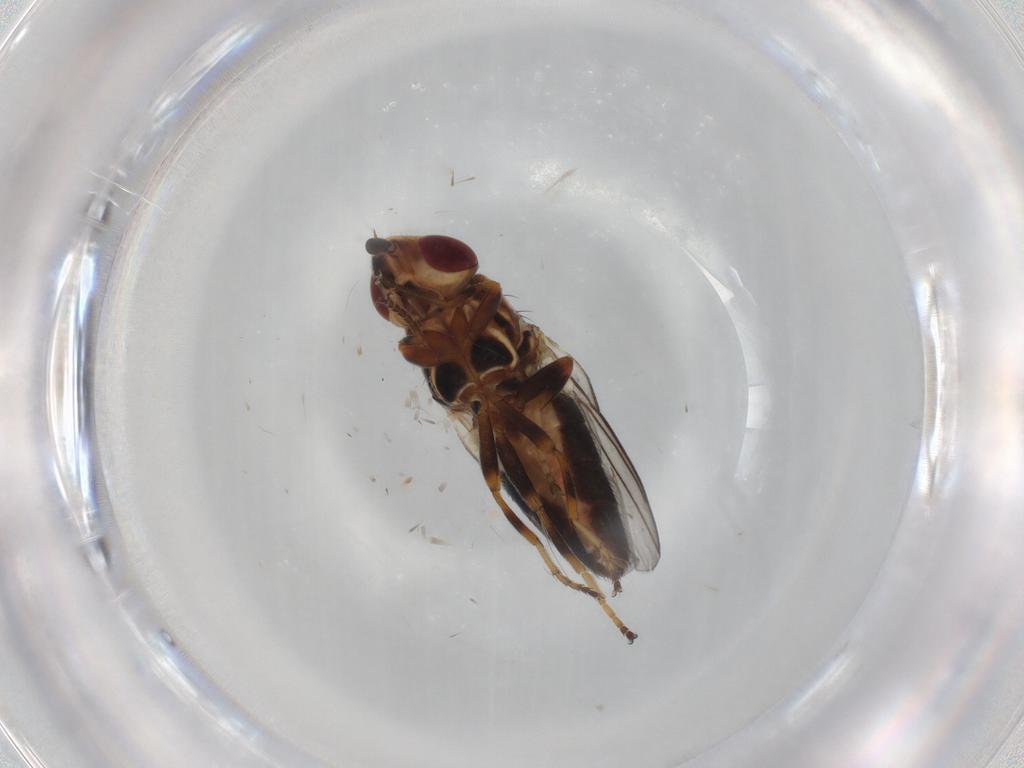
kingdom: Animalia
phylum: Arthropoda
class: Insecta
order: Diptera
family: Chloropidae
